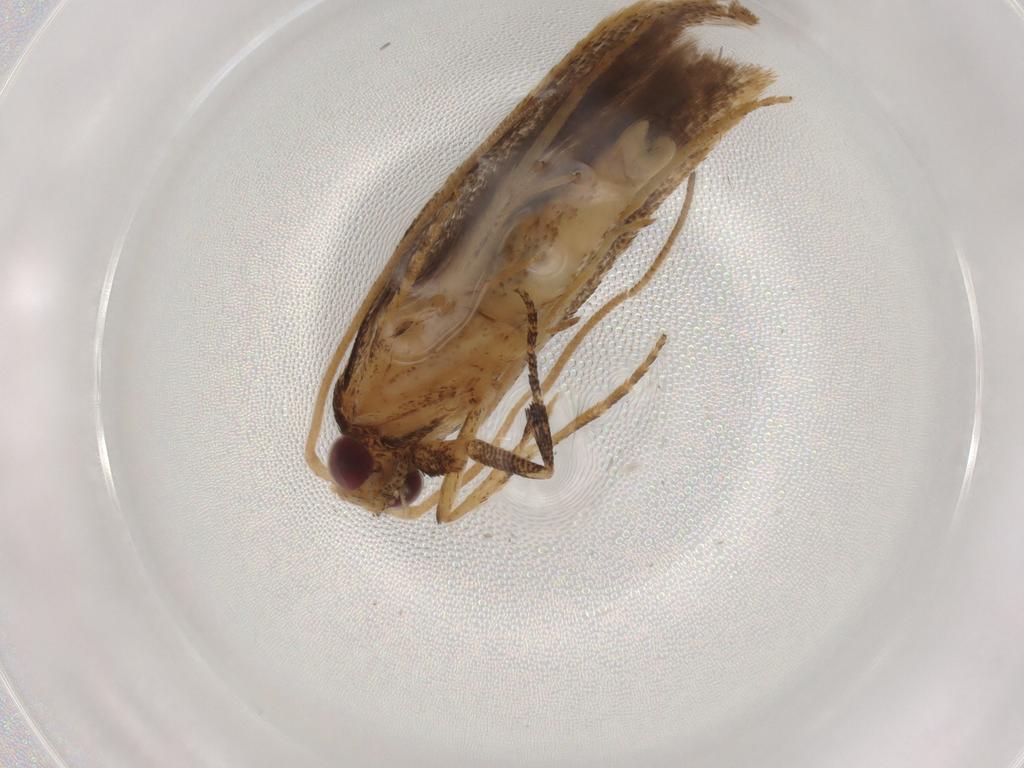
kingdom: Animalia
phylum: Arthropoda
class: Insecta
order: Lepidoptera
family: Gelechiidae
